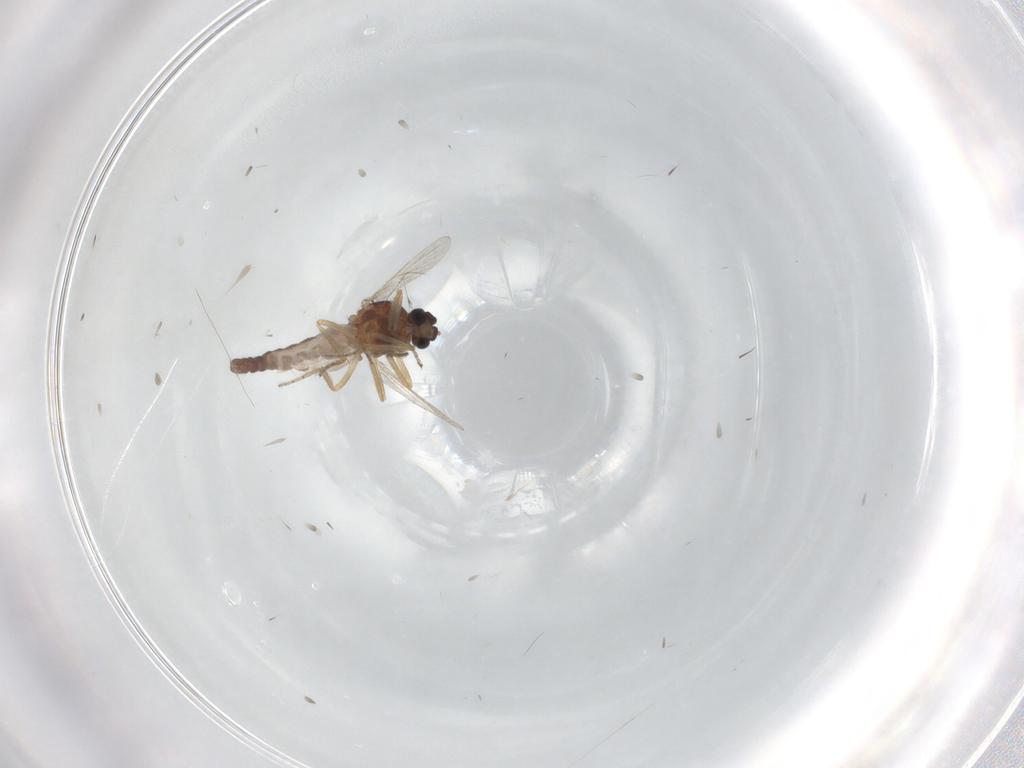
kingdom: Animalia
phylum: Arthropoda
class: Insecta
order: Diptera
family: Ceratopogonidae
